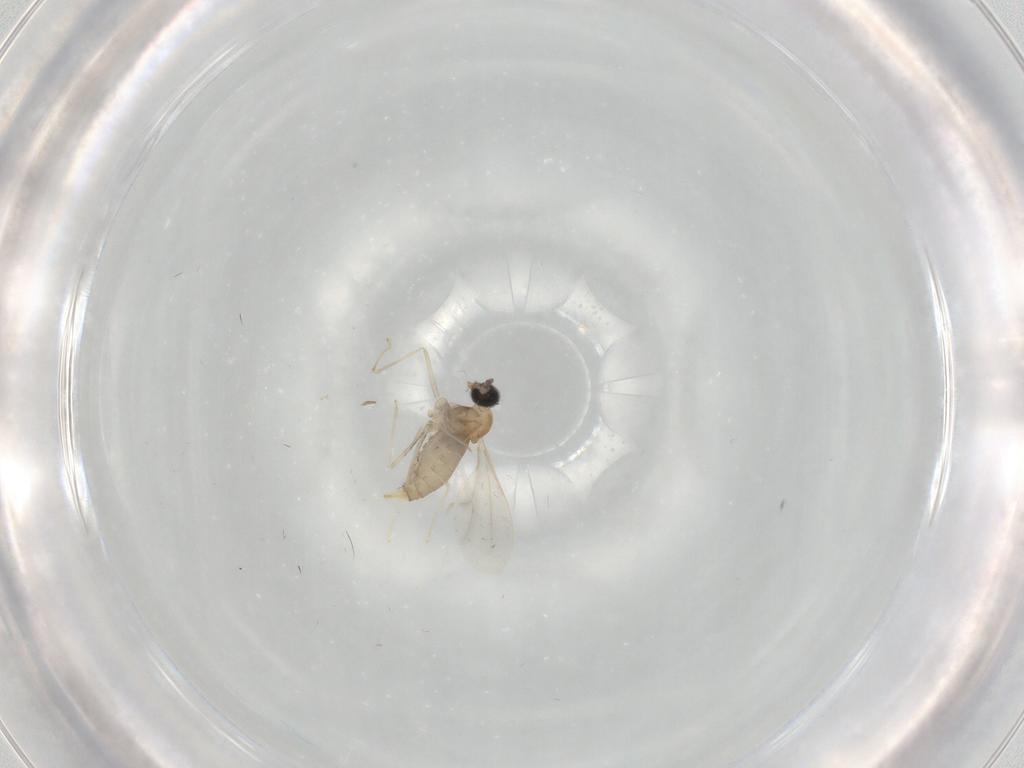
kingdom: Animalia
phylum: Arthropoda
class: Insecta
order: Diptera
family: Cecidomyiidae
